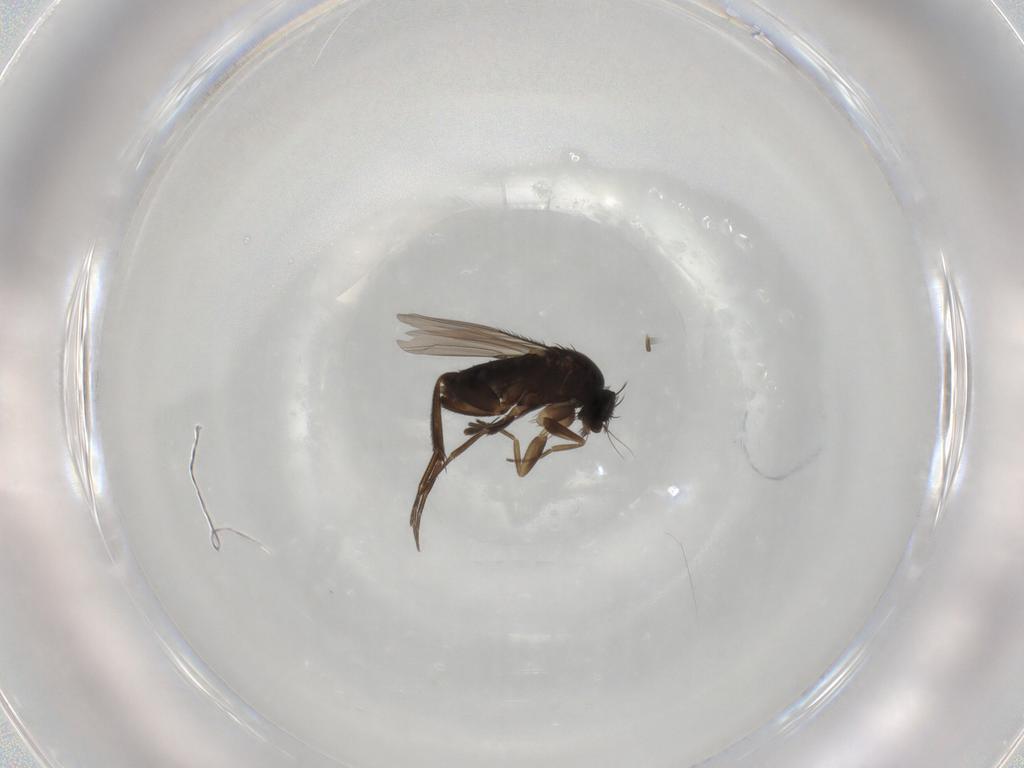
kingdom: Animalia
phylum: Arthropoda
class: Insecta
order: Diptera
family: Phoridae
